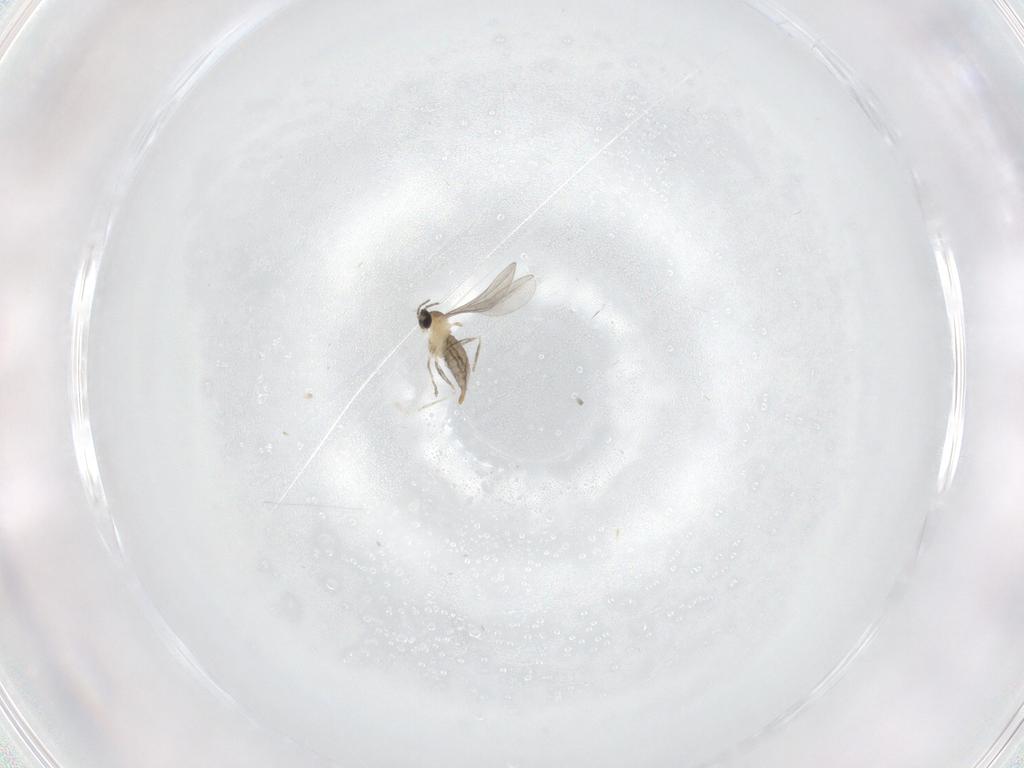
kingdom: Animalia
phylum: Arthropoda
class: Insecta
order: Diptera
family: Cecidomyiidae
